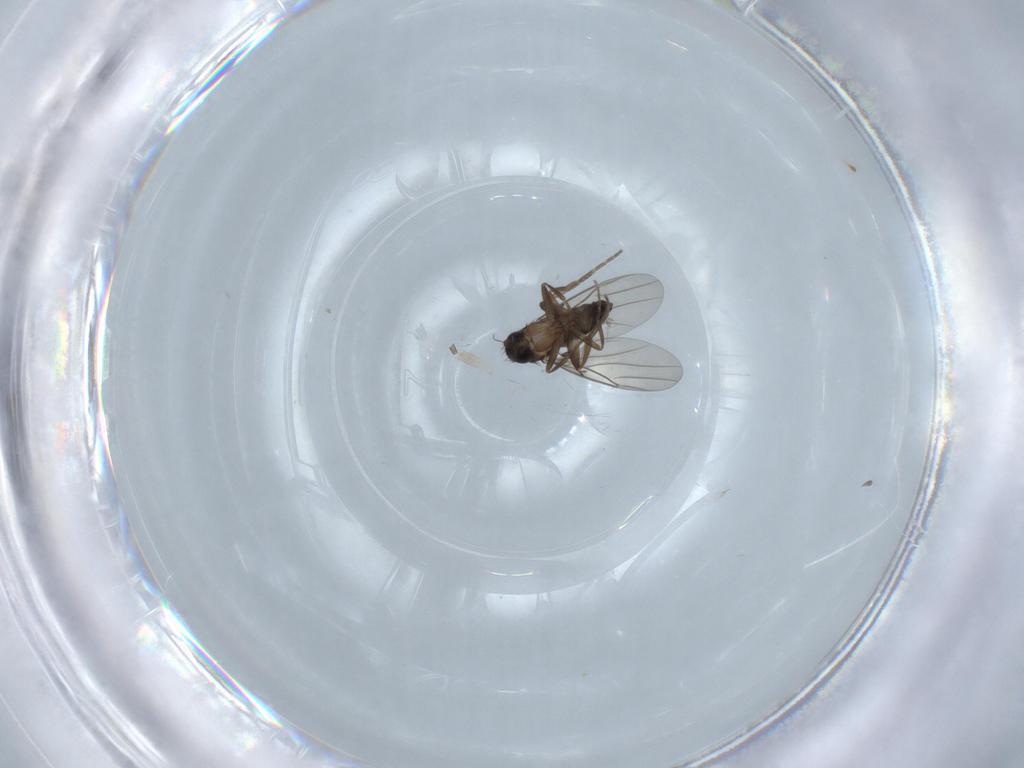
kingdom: Animalia
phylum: Arthropoda
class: Insecta
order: Diptera
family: Phoridae
